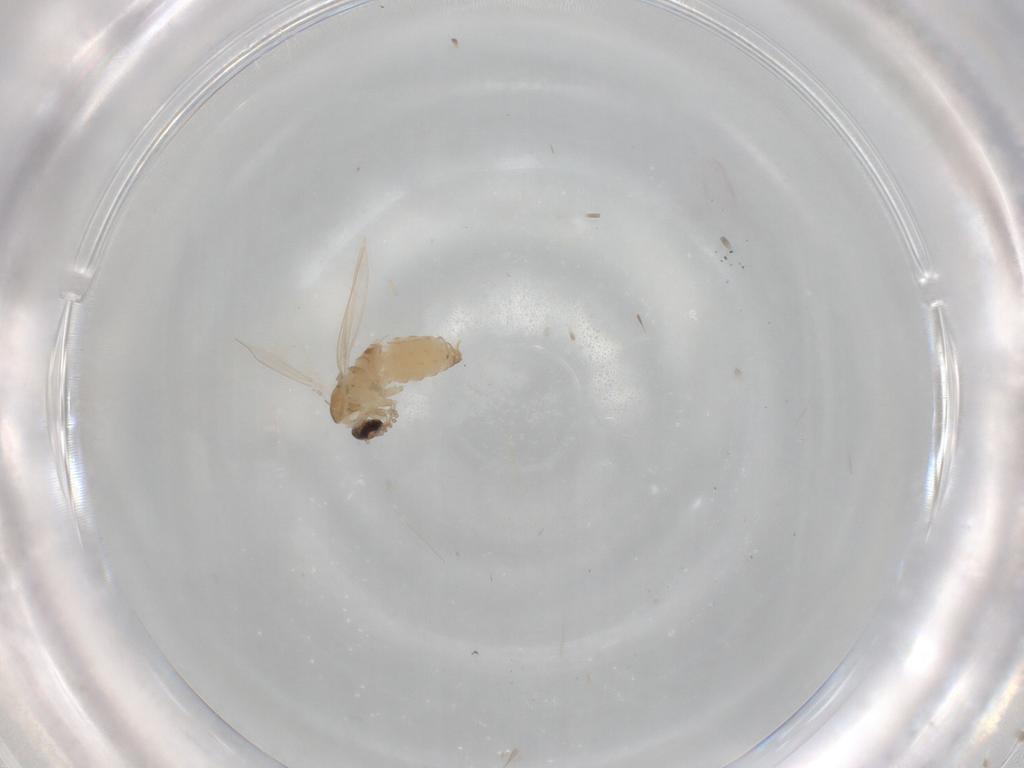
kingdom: Animalia
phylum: Arthropoda
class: Insecta
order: Diptera
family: Psychodidae
